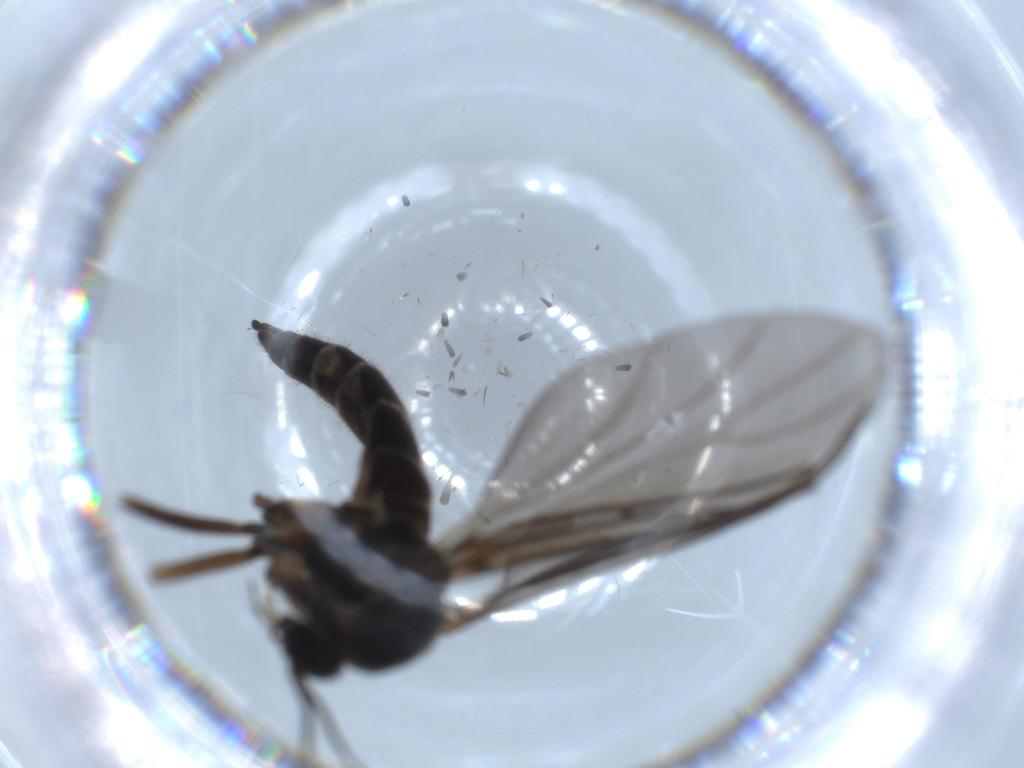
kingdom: Animalia
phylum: Arthropoda
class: Insecta
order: Diptera
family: Sciaridae
